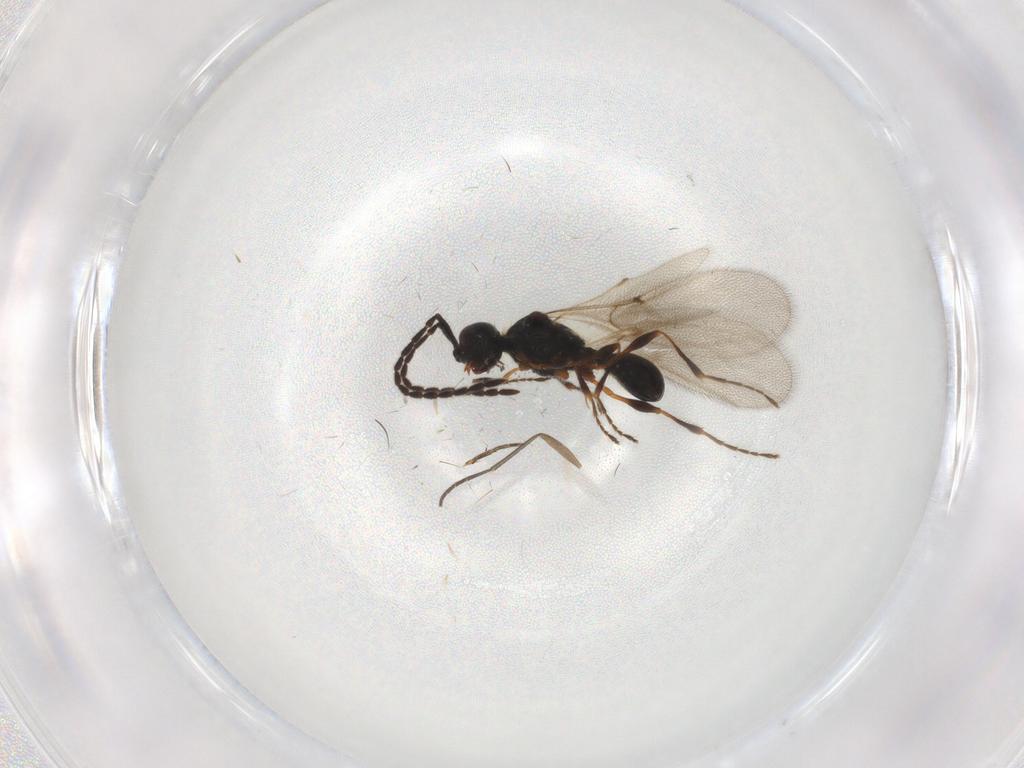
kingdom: Animalia
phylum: Arthropoda
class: Insecta
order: Hymenoptera
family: Diapriidae
